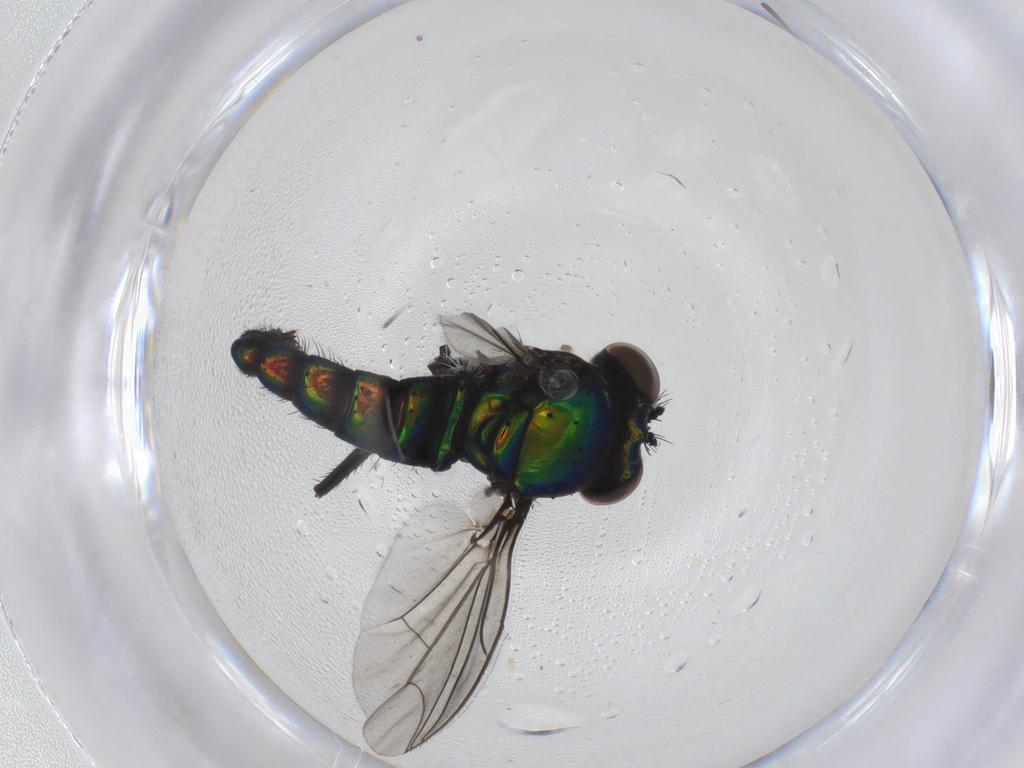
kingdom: Animalia
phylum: Arthropoda
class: Insecta
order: Diptera
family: Dolichopodidae
